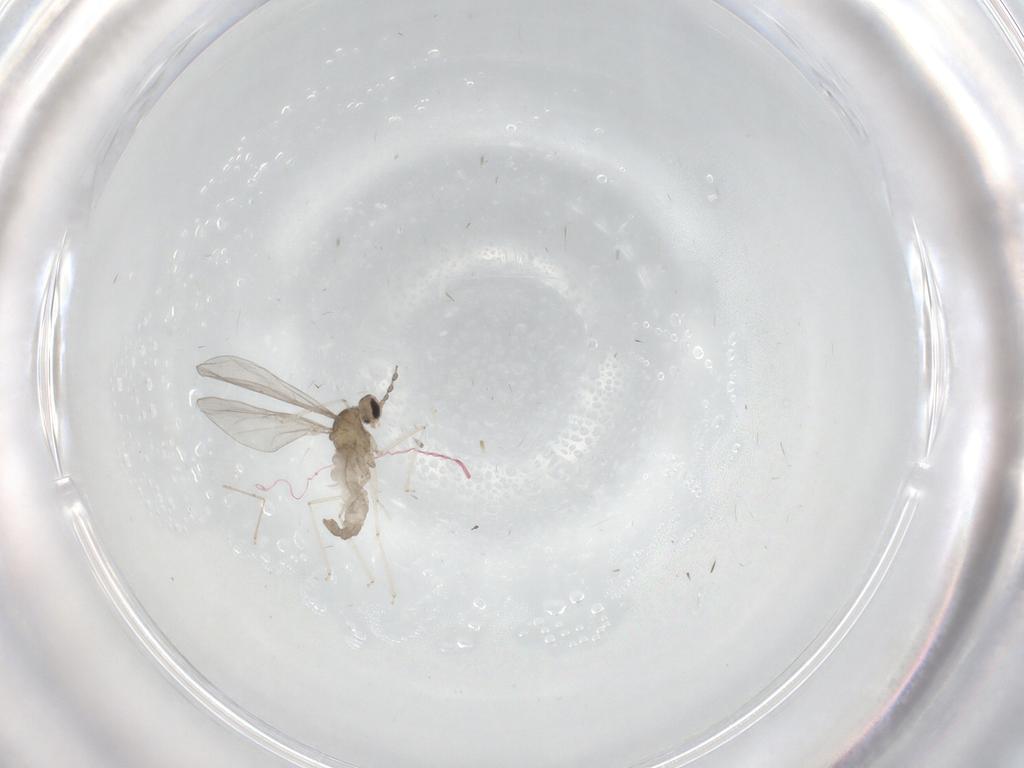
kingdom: Animalia
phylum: Arthropoda
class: Insecta
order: Diptera
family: Cecidomyiidae
